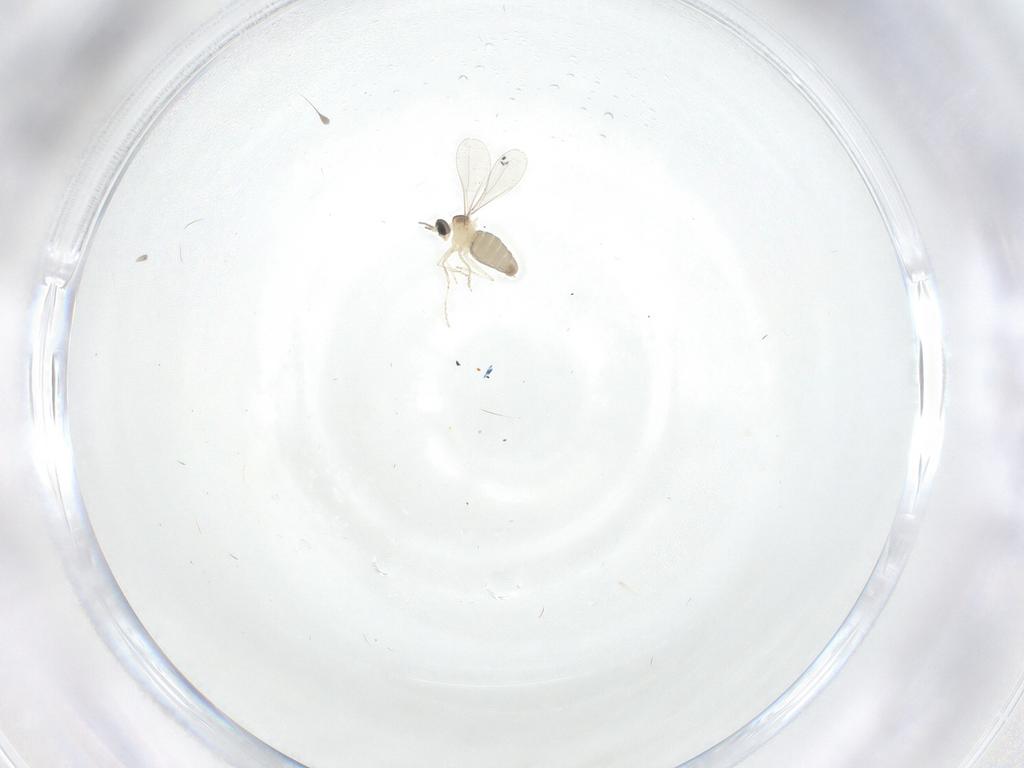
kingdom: Animalia
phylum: Arthropoda
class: Insecta
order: Diptera
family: Cecidomyiidae
